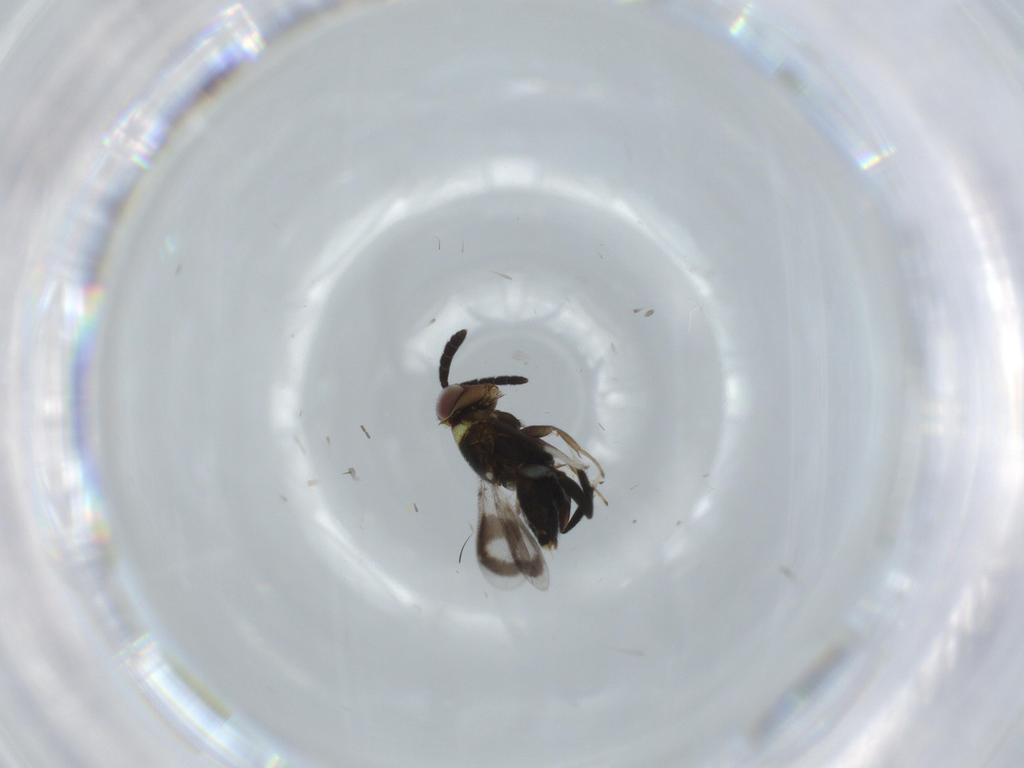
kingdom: Animalia
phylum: Arthropoda
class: Insecta
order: Hymenoptera
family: Aphelinidae
